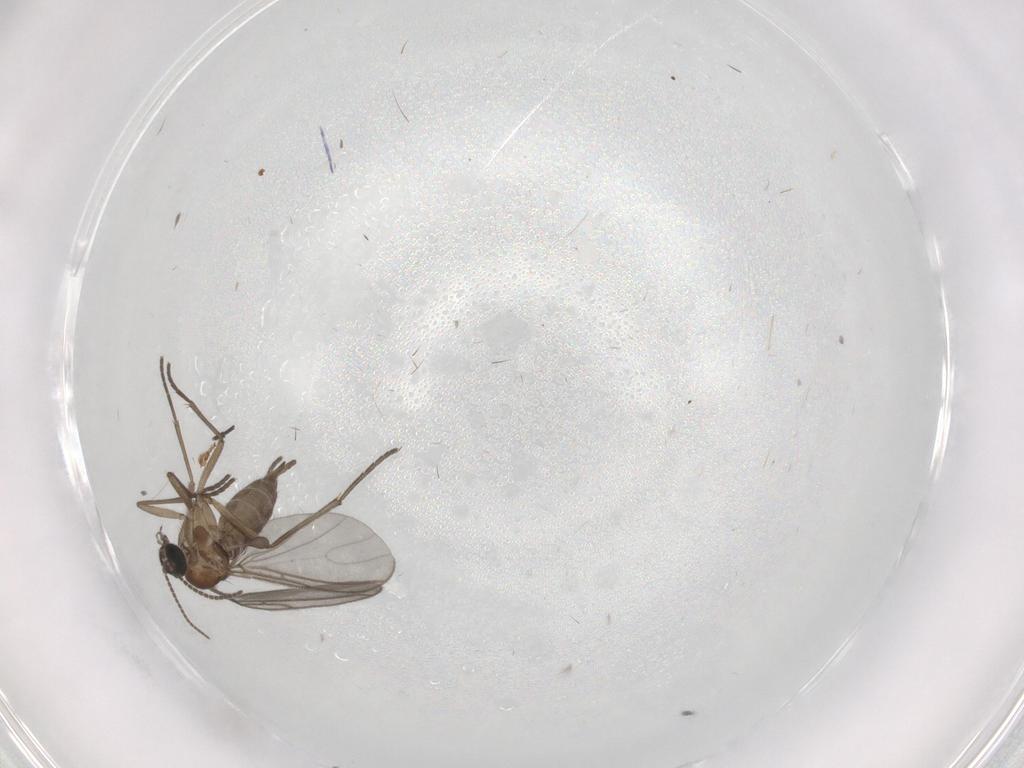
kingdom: Animalia
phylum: Arthropoda
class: Insecta
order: Diptera
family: Sciaridae
